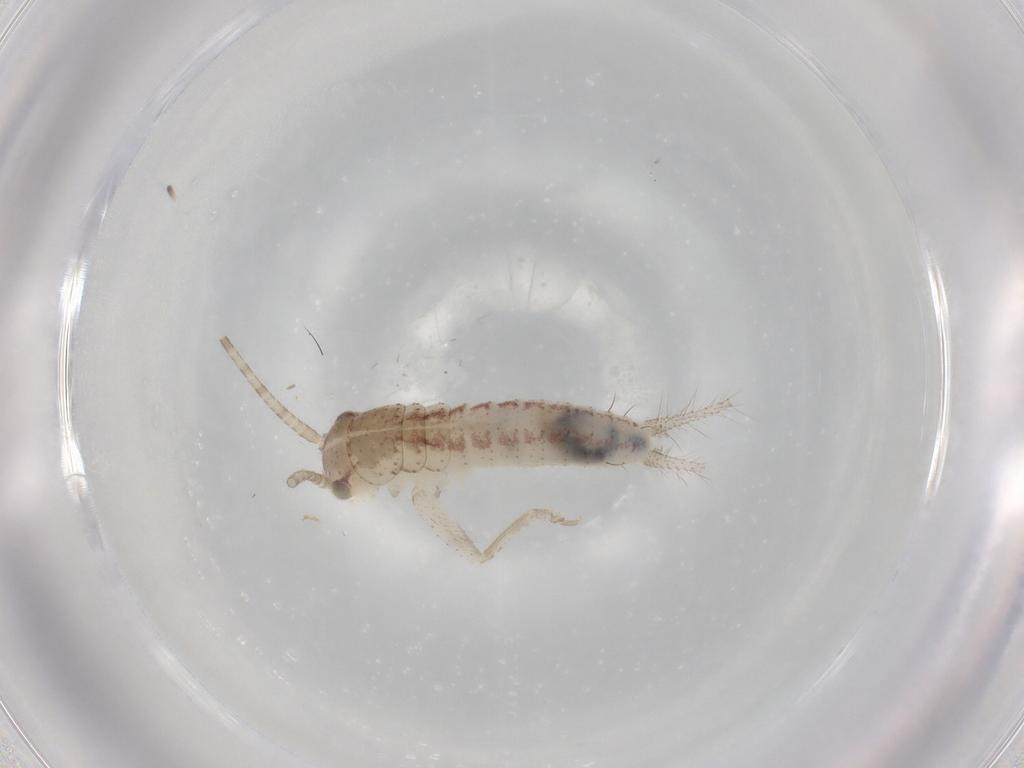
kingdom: Animalia
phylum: Arthropoda
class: Insecta
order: Orthoptera
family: Gryllidae
